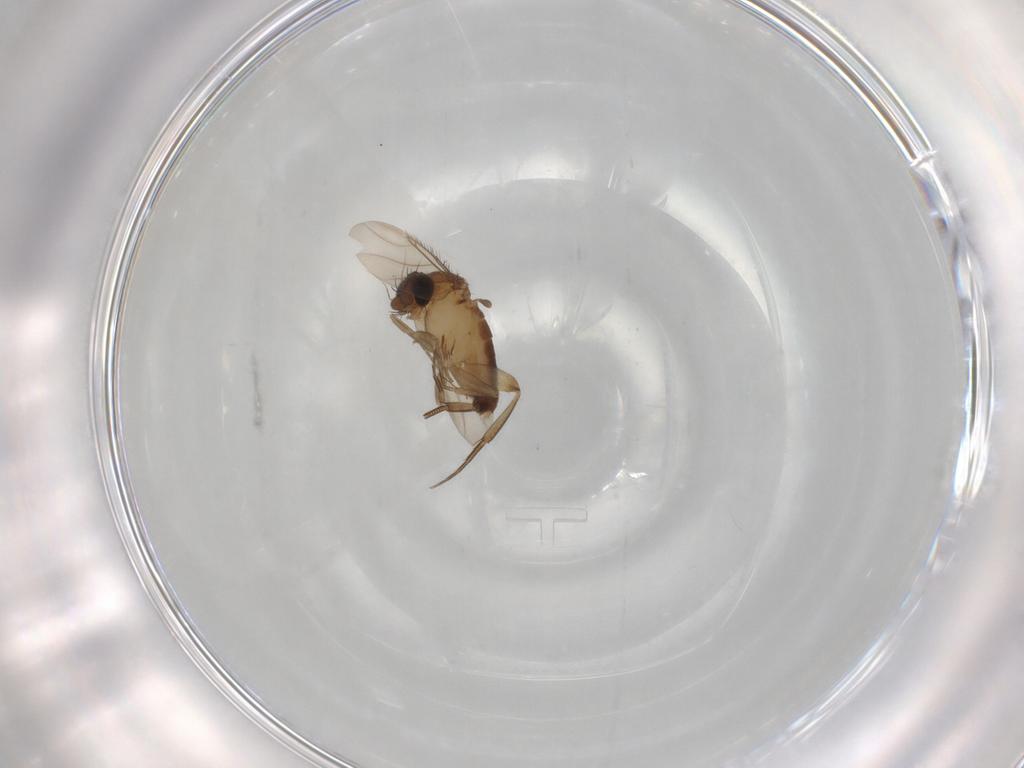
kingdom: Animalia
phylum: Arthropoda
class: Insecta
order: Diptera
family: Phoridae
